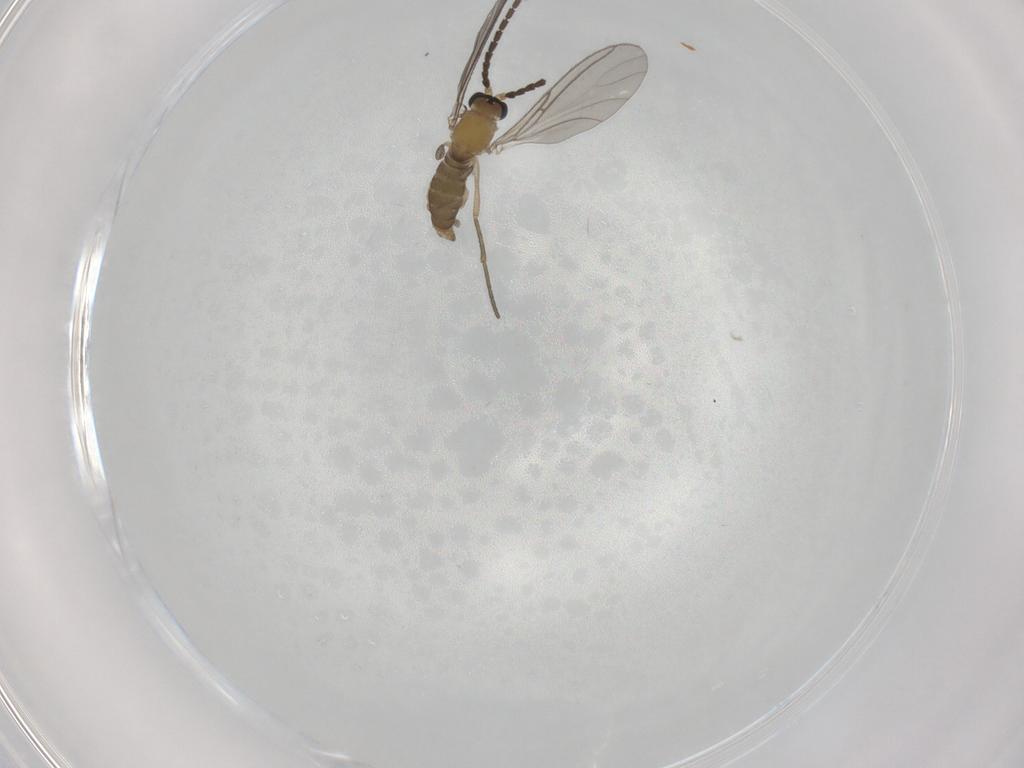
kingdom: Animalia
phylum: Arthropoda
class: Insecta
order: Diptera
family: Sciaridae
